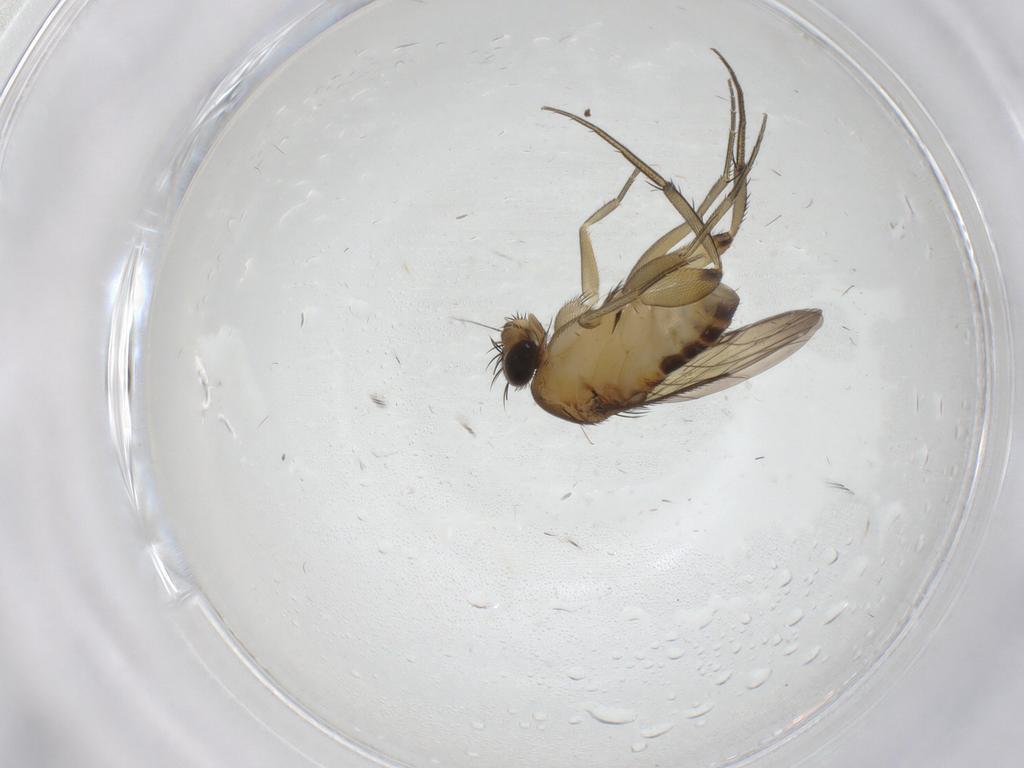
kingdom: Animalia
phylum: Arthropoda
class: Insecta
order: Diptera
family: Phoridae
